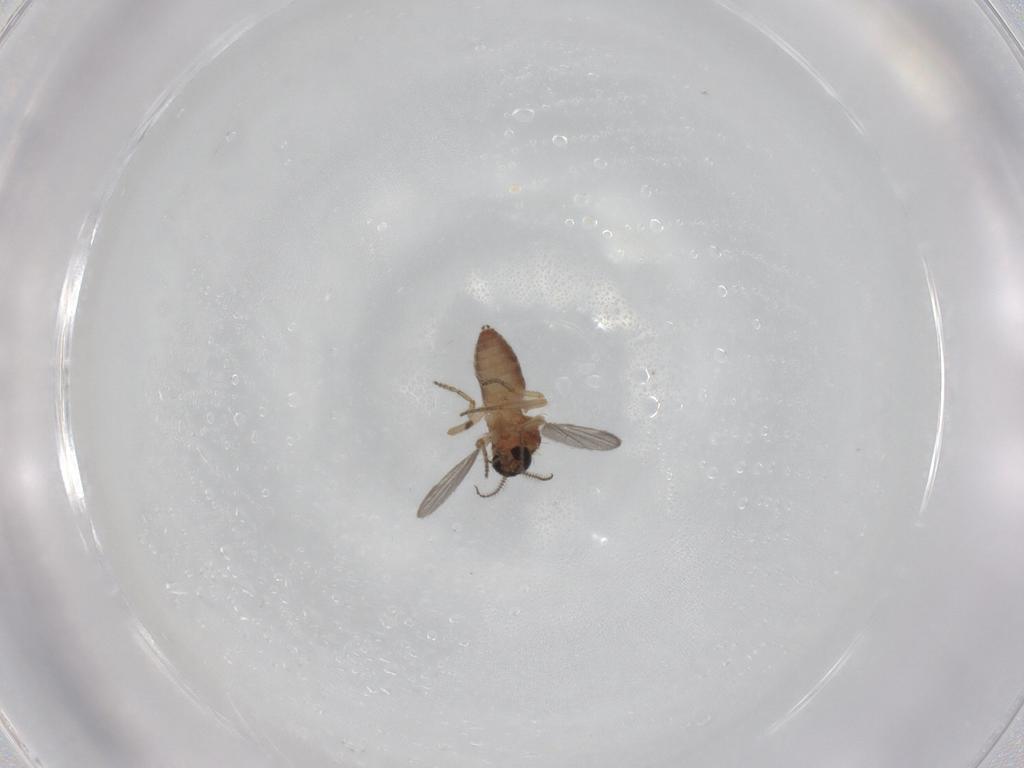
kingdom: Animalia
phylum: Arthropoda
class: Insecta
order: Diptera
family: Ceratopogonidae
